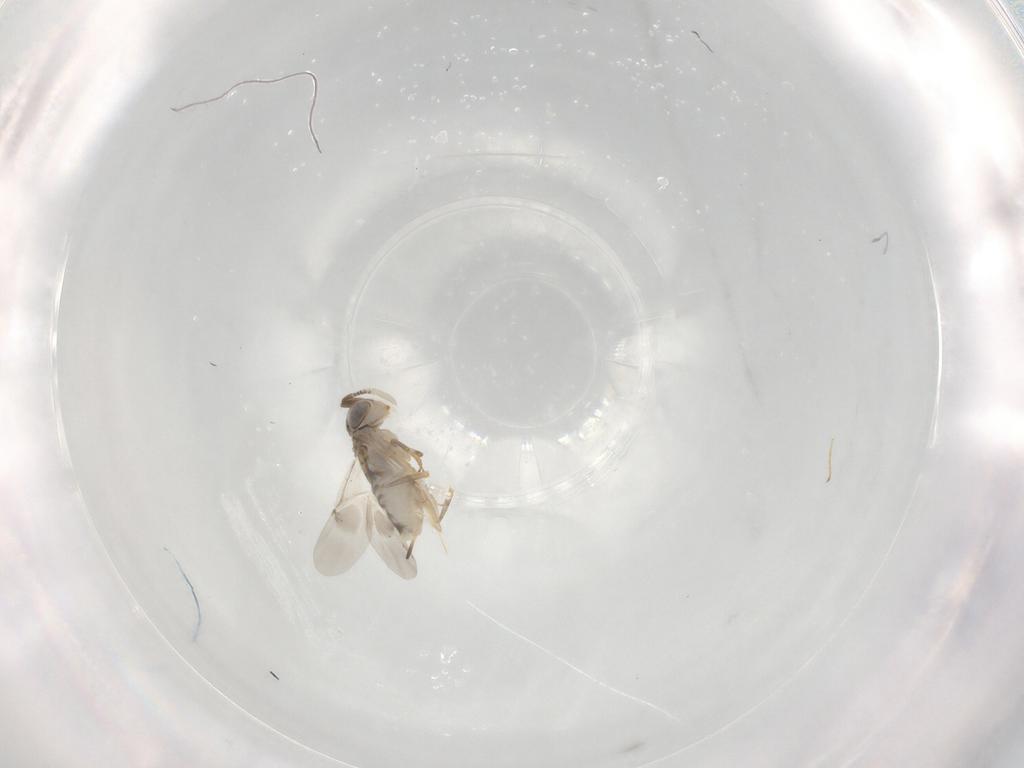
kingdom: Animalia
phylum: Arthropoda
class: Insecta
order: Hymenoptera
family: Encyrtidae
